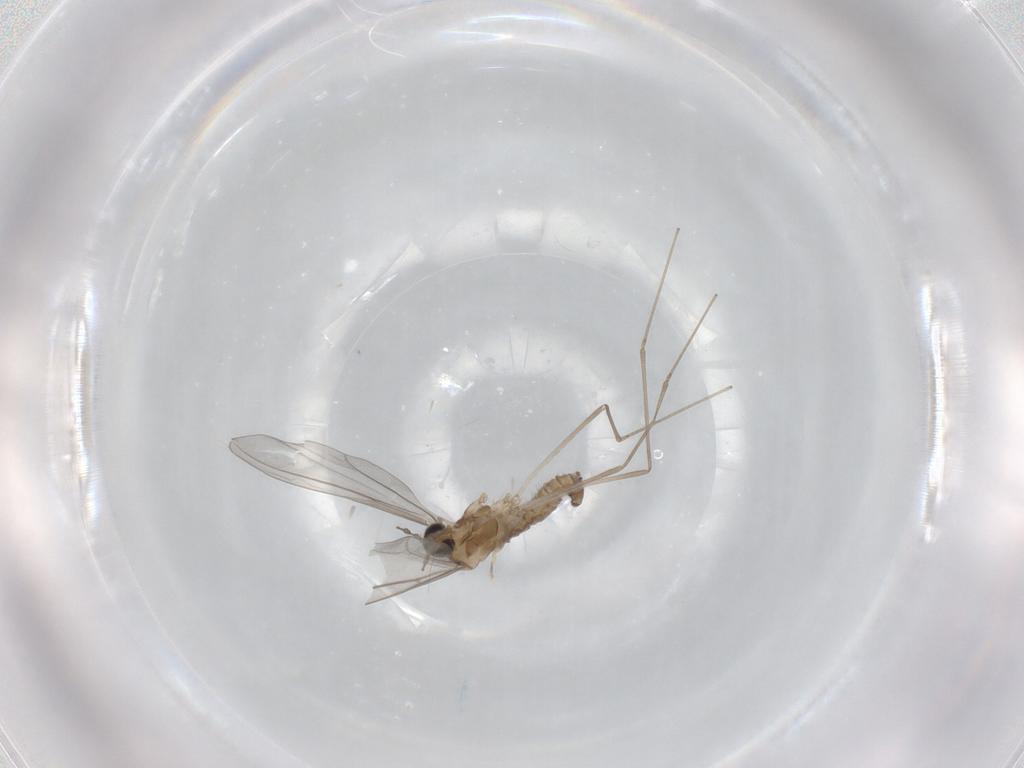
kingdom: Animalia
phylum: Arthropoda
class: Insecta
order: Diptera
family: Cecidomyiidae
